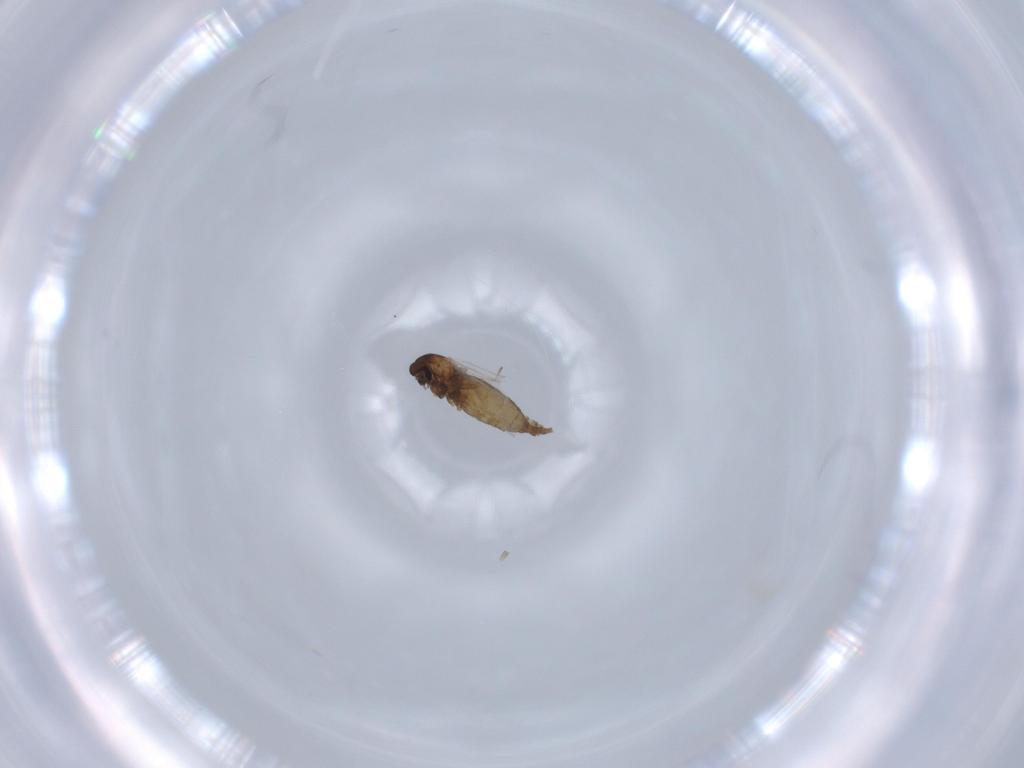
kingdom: Animalia
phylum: Arthropoda
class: Insecta
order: Diptera
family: Cecidomyiidae
